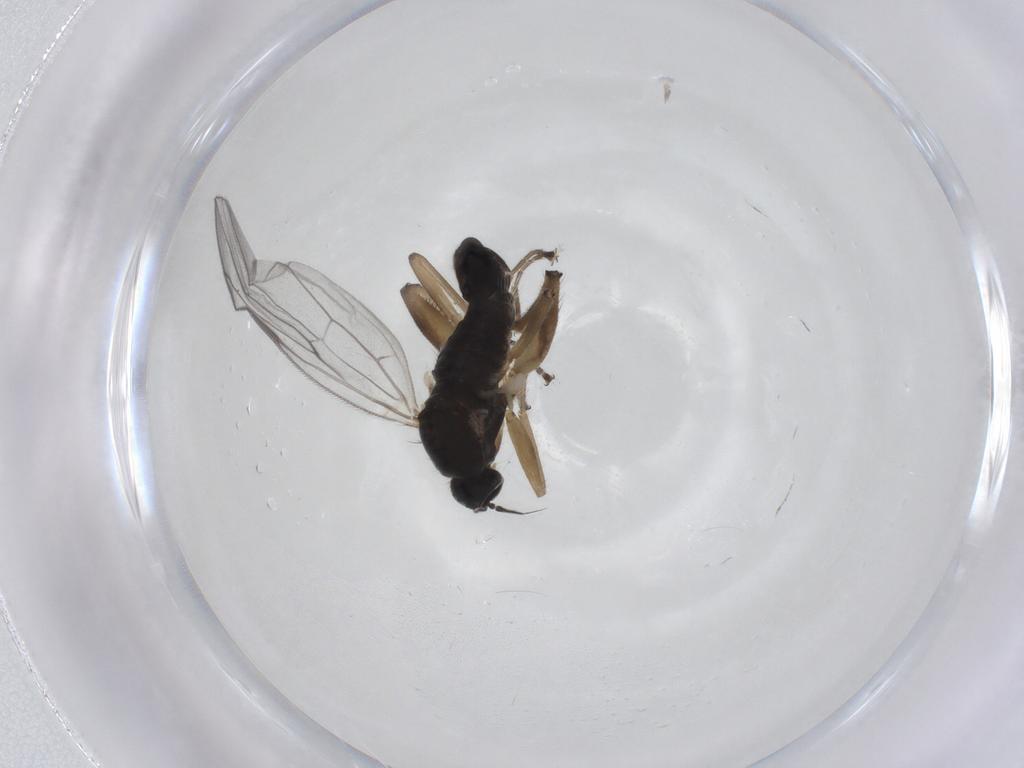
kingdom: Animalia
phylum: Arthropoda
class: Insecta
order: Diptera
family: Hybotidae
